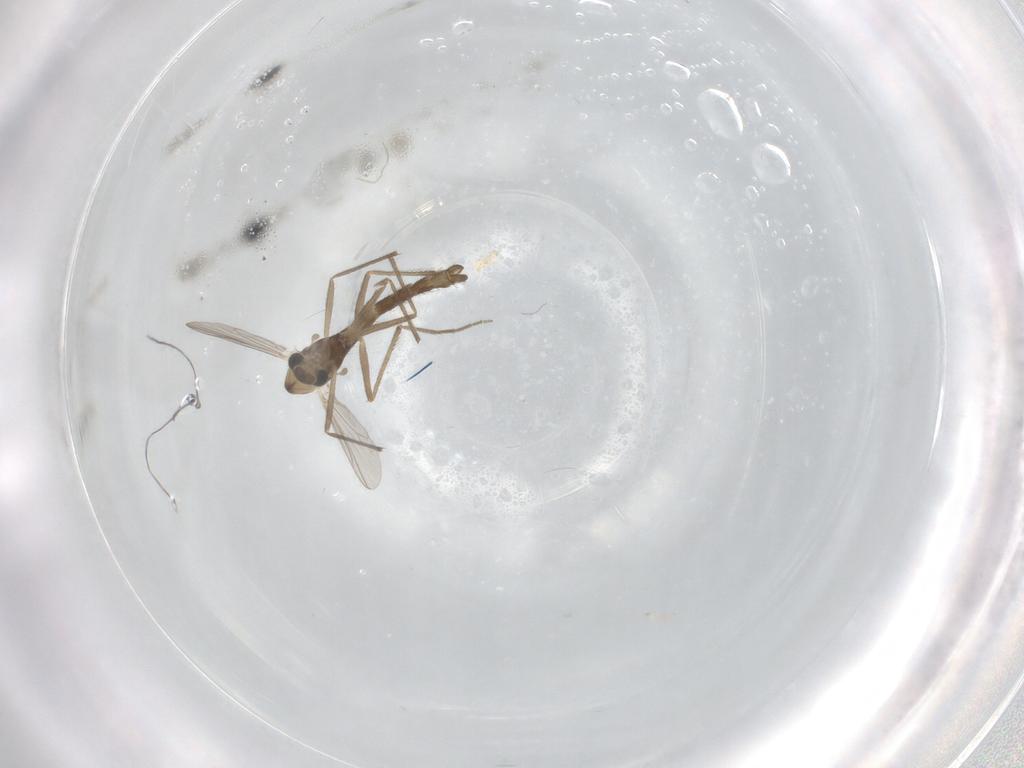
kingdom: Animalia
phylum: Arthropoda
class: Insecta
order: Diptera
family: Chironomidae
